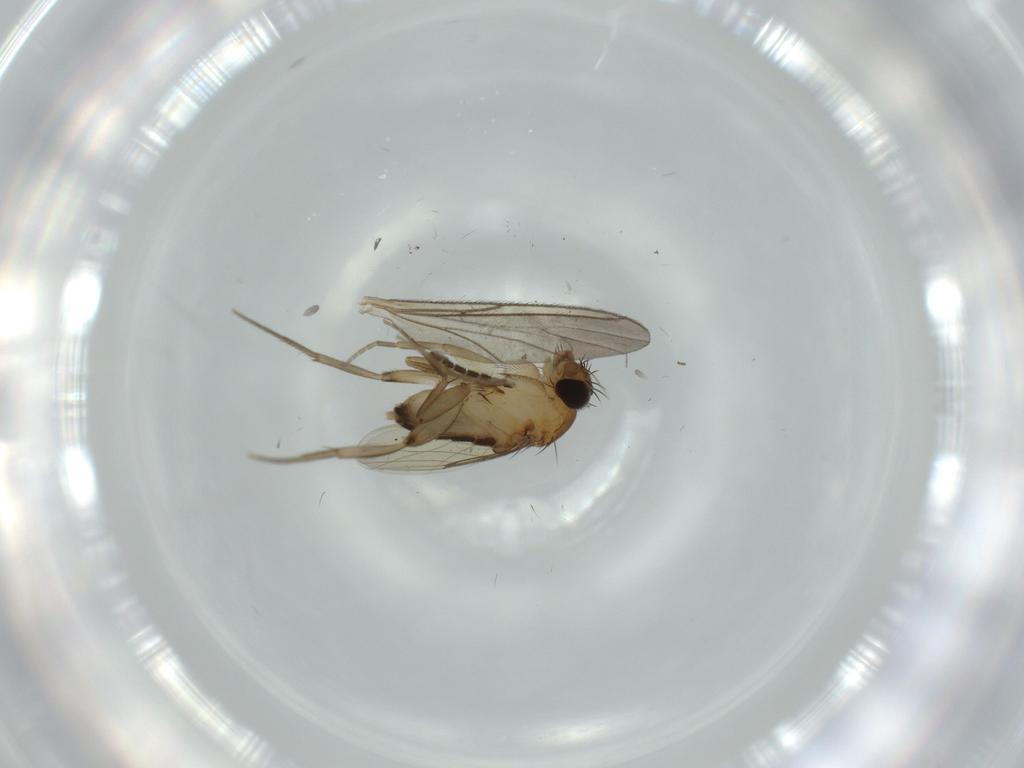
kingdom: Animalia
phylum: Arthropoda
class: Insecta
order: Diptera
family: Phoridae
